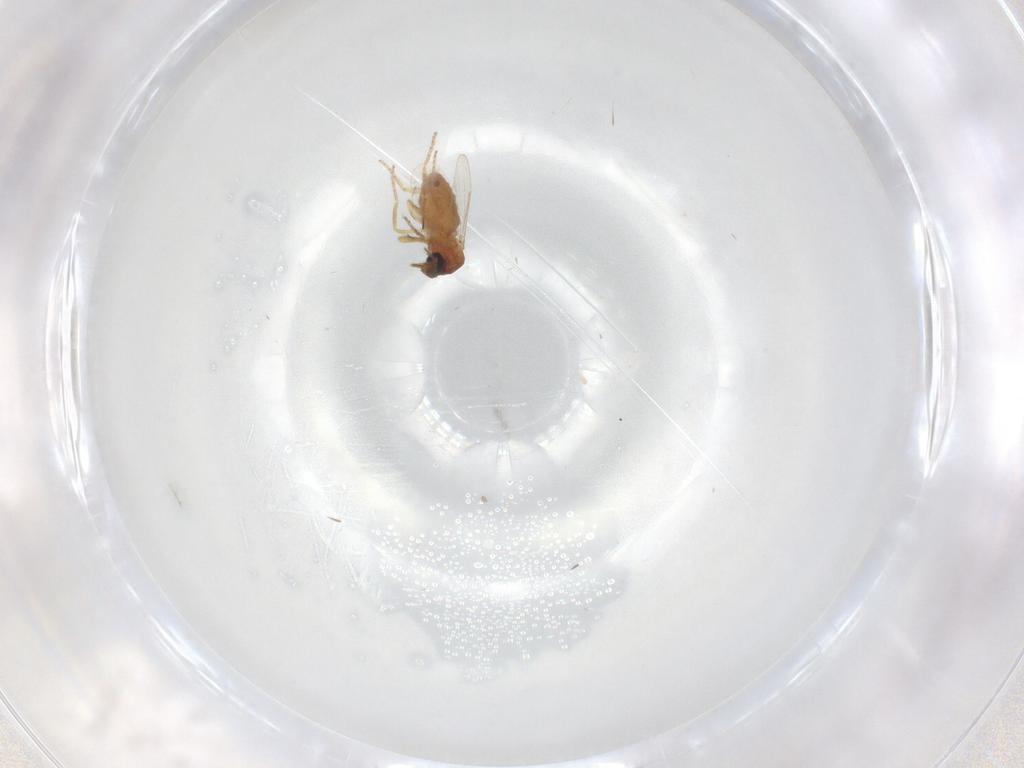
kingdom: Animalia
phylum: Arthropoda
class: Insecta
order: Diptera
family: Ceratopogonidae
